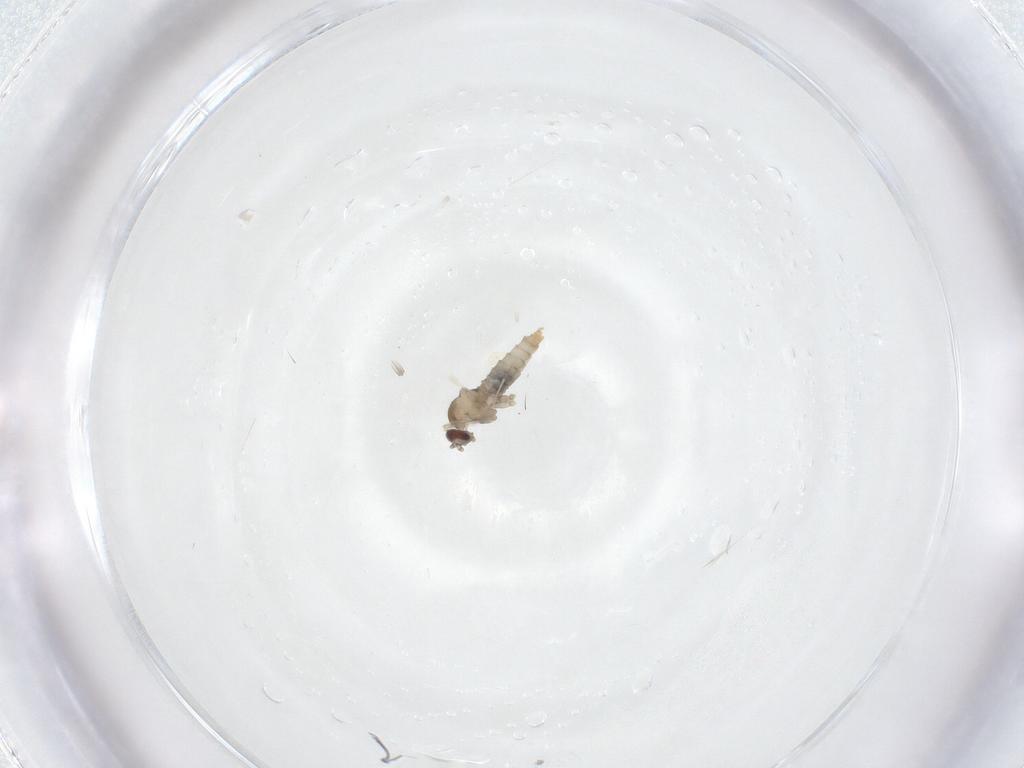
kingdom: Animalia
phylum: Arthropoda
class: Insecta
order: Diptera
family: Cecidomyiidae
